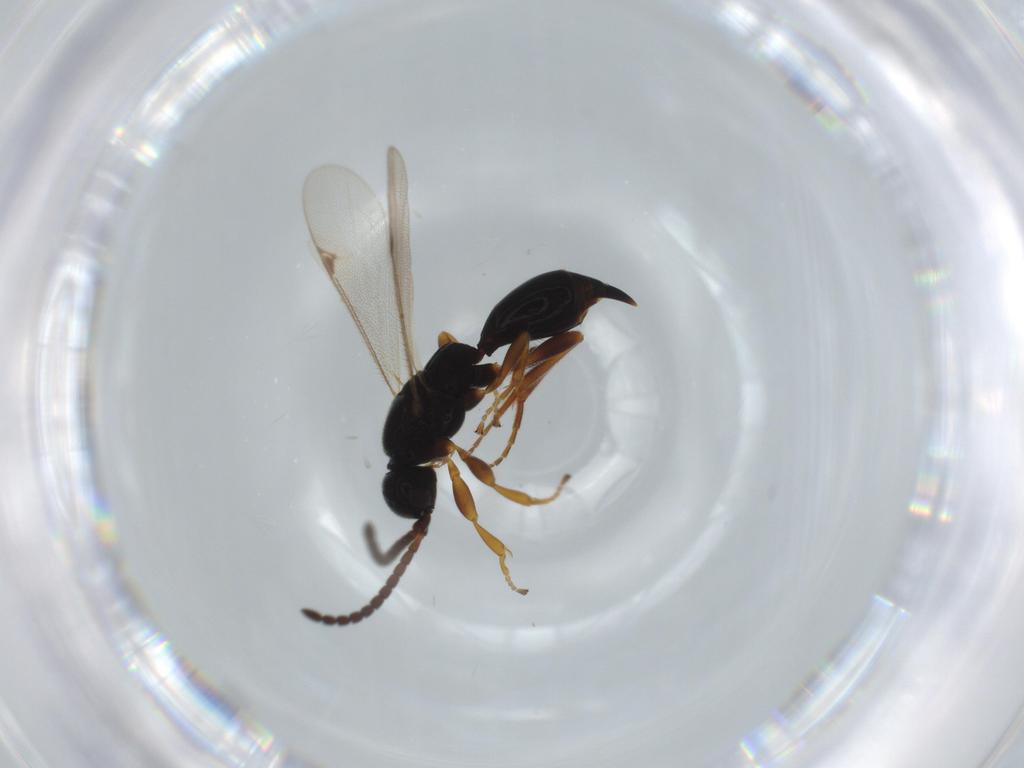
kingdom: Animalia
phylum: Arthropoda
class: Insecta
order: Hymenoptera
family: Proctotrupidae
